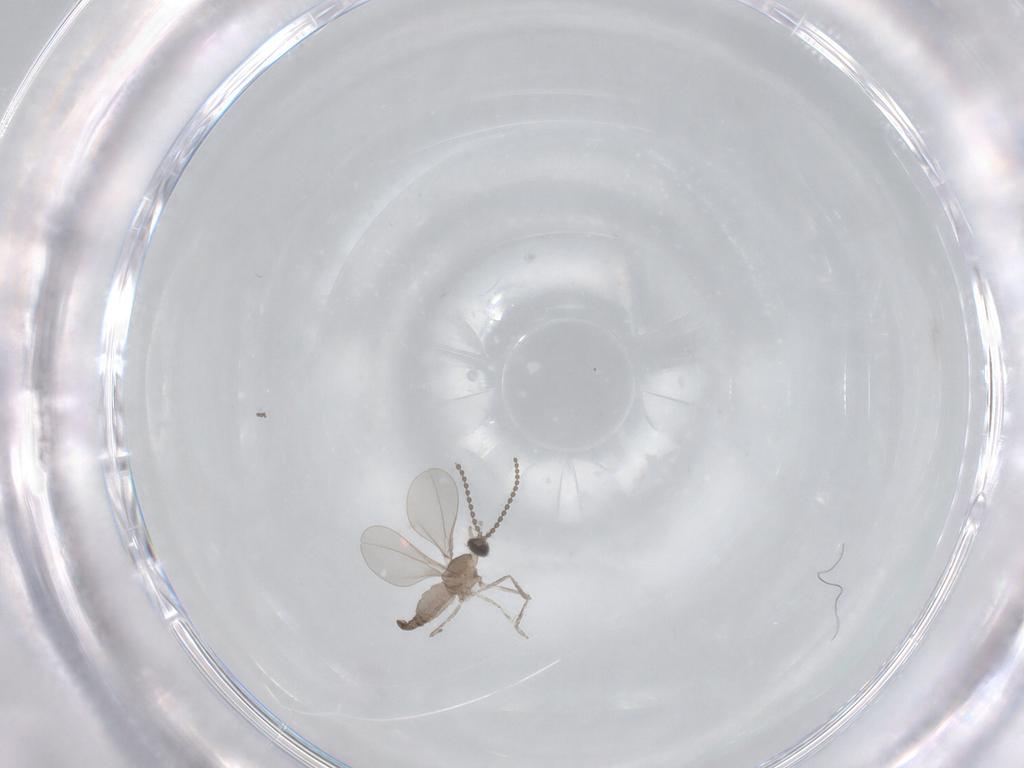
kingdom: Animalia
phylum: Arthropoda
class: Insecta
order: Diptera
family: Cecidomyiidae
